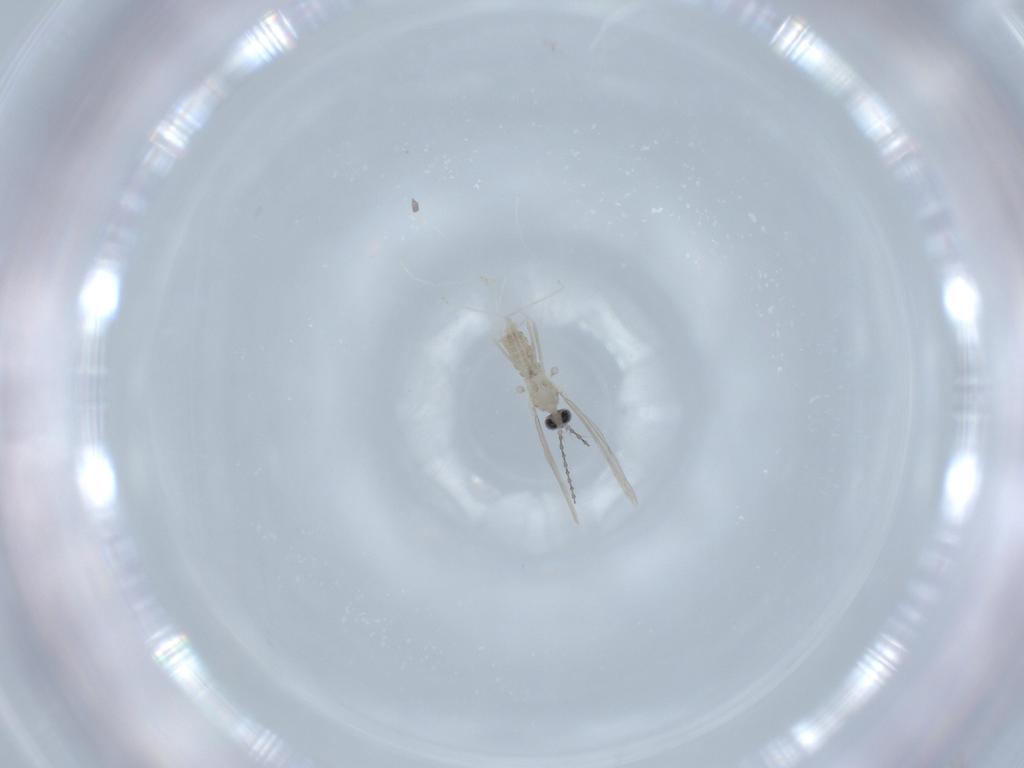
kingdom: Animalia
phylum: Arthropoda
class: Insecta
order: Diptera
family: Cecidomyiidae
